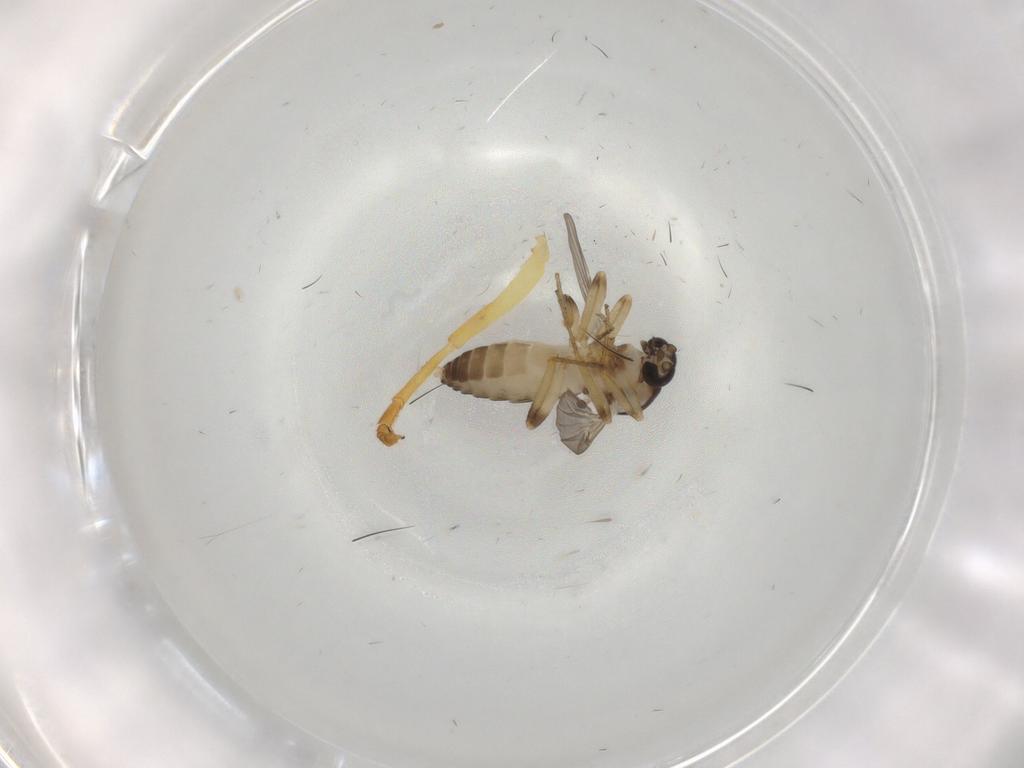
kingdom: Animalia
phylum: Arthropoda
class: Insecta
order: Diptera
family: Ceratopogonidae
